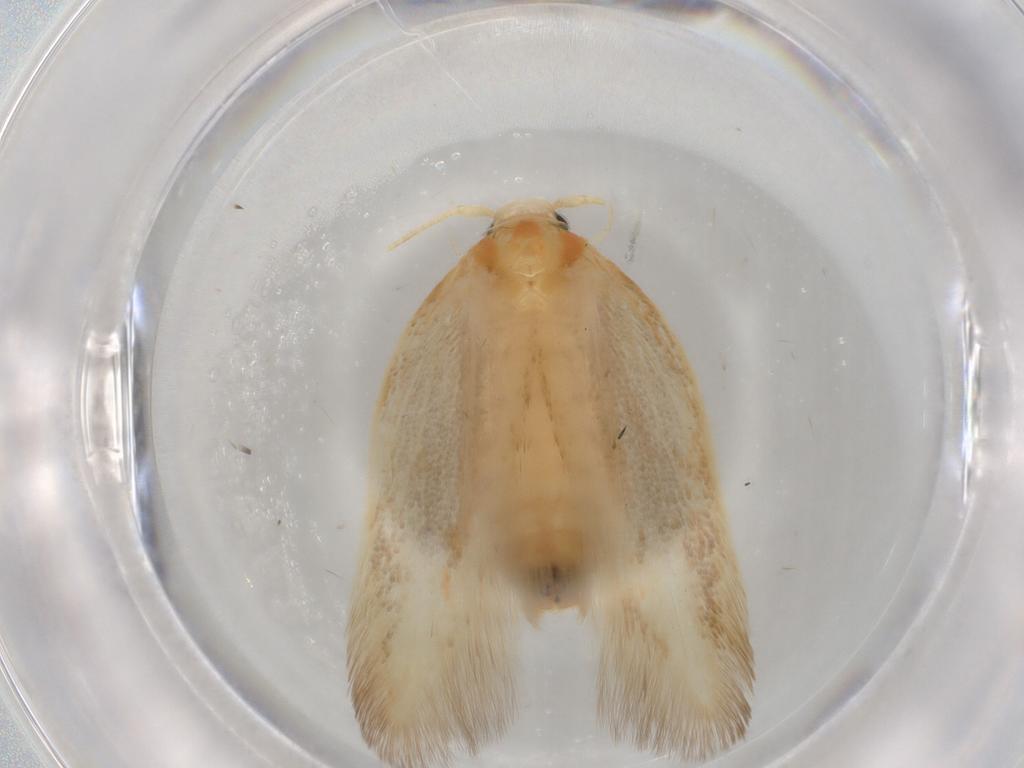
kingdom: Animalia
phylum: Arthropoda
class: Insecta
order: Lepidoptera
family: Geometridae
